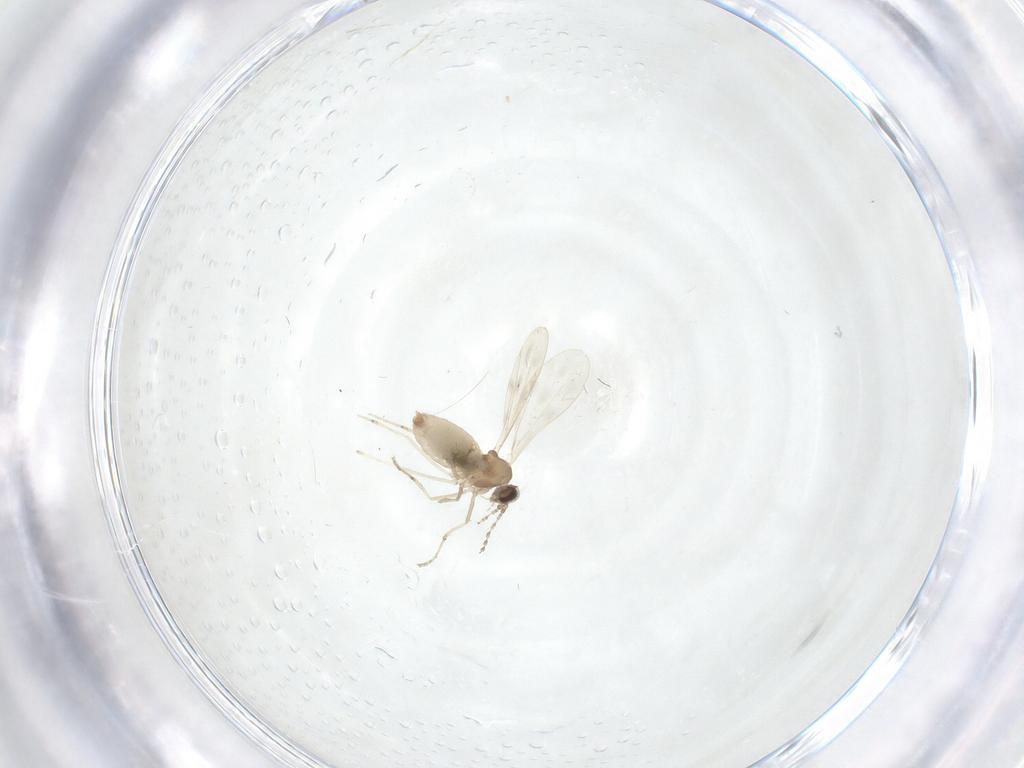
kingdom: Animalia
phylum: Arthropoda
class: Insecta
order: Diptera
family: Cecidomyiidae
